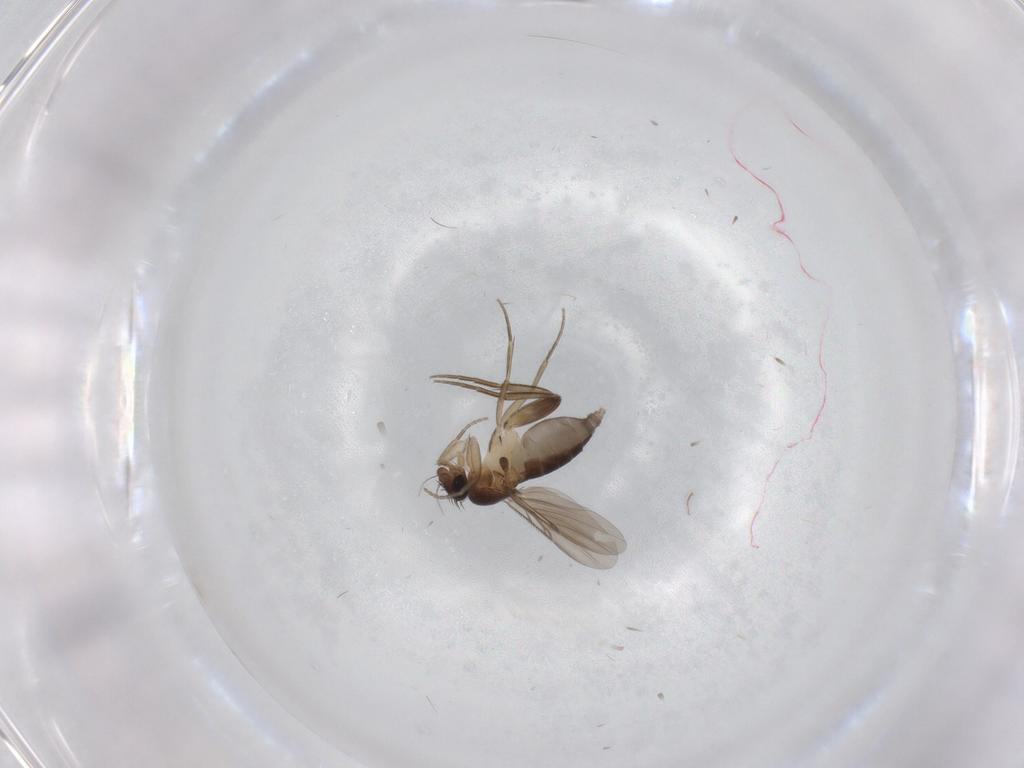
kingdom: Animalia
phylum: Arthropoda
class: Insecta
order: Diptera
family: Phoridae
